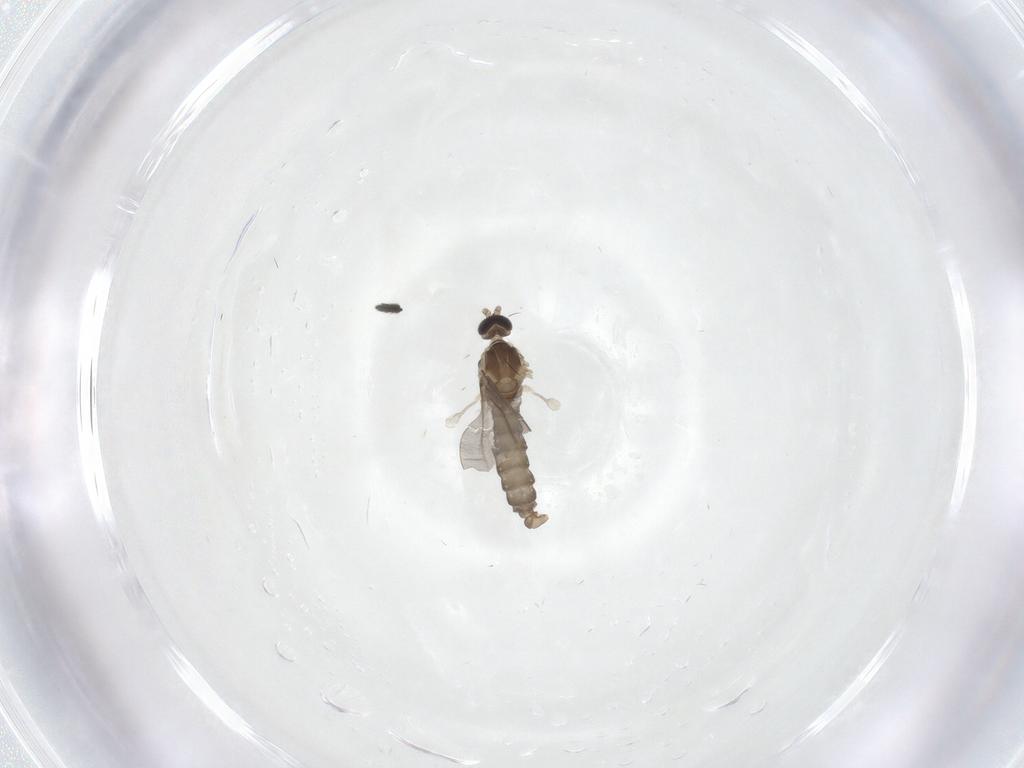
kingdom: Animalia
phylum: Arthropoda
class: Insecta
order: Diptera
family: Cecidomyiidae
